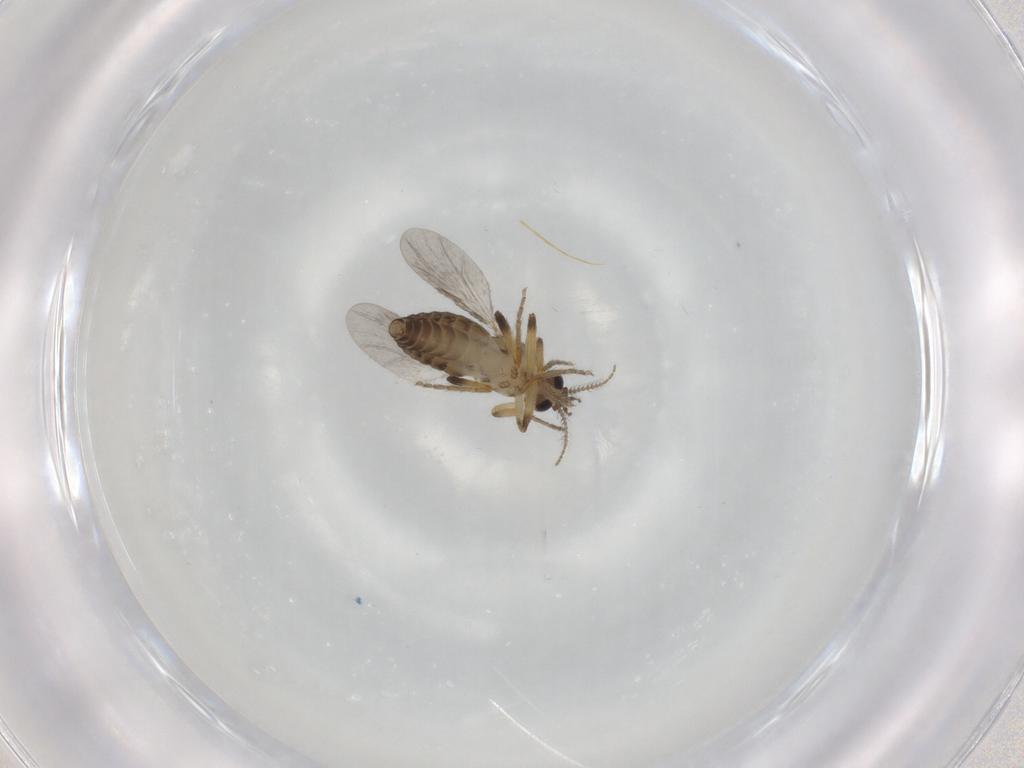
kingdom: Animalia
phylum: Arthropoda
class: Insecta
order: Diptera
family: Ceratopogonidae
